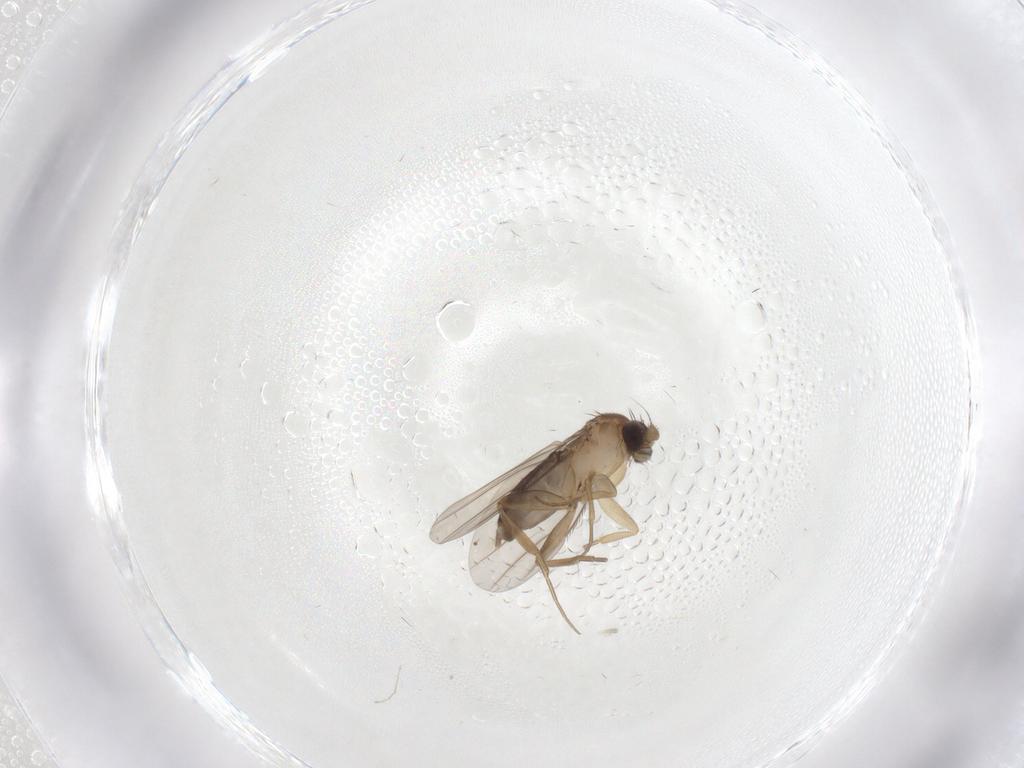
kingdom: Animalia
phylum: Arthropoda
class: Insecta
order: Diptera
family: Phoridae
